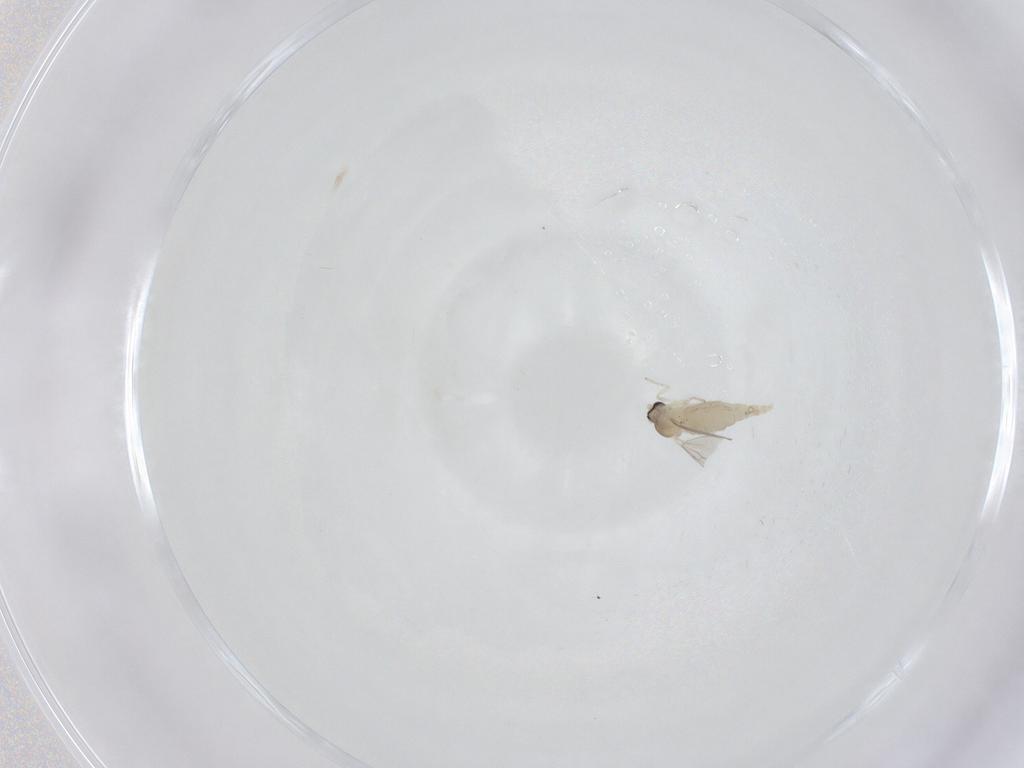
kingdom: Animalia
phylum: Arthropoda
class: Insecta
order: Diptera
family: Cecidomyiidae
